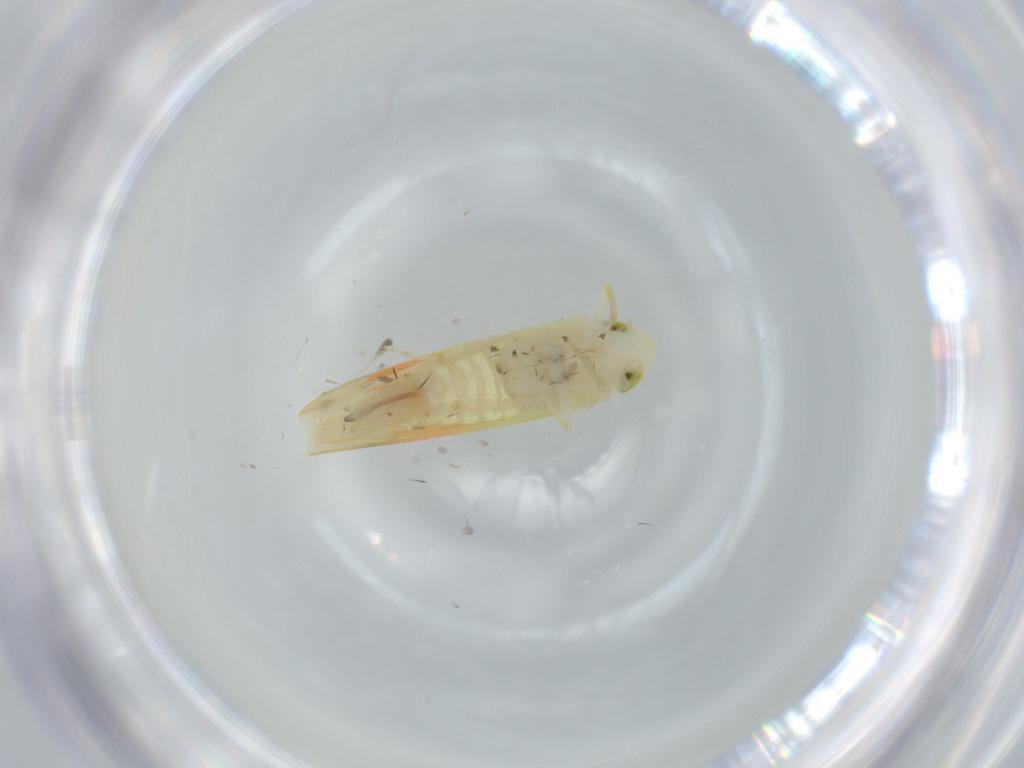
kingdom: Animalia
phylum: Arthropoda
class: Insecta
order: Hemiptera
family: Cicadellidae
